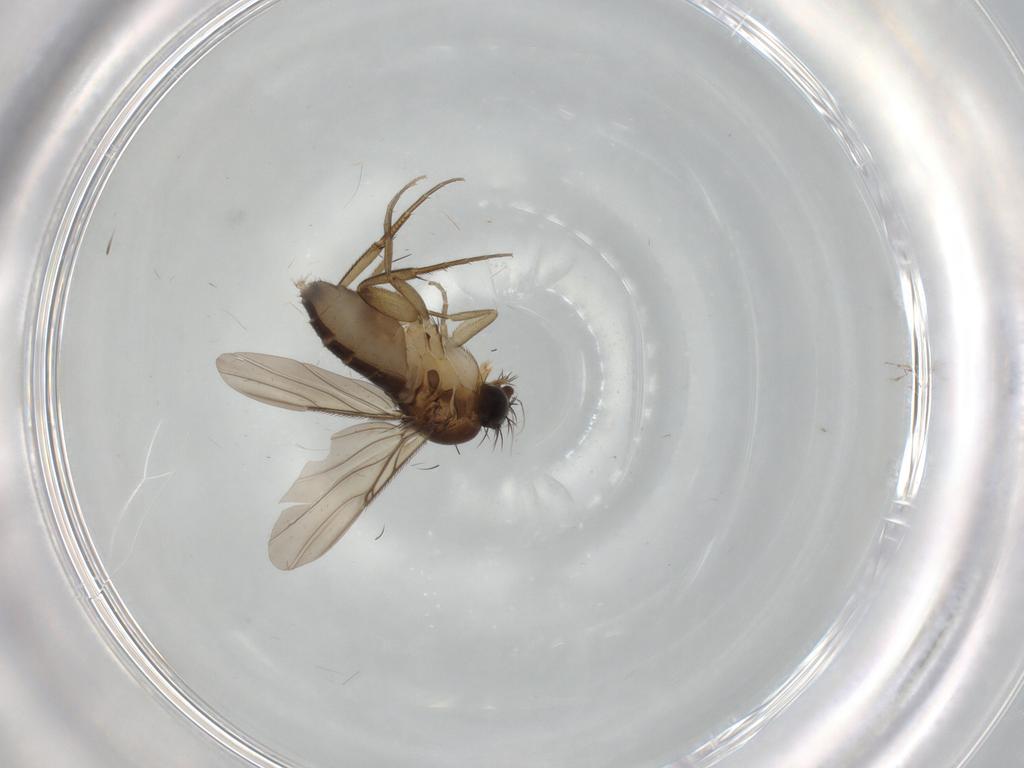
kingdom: Animalia
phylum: Arthropoda
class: Insecta
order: Diptera
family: Phoridae
